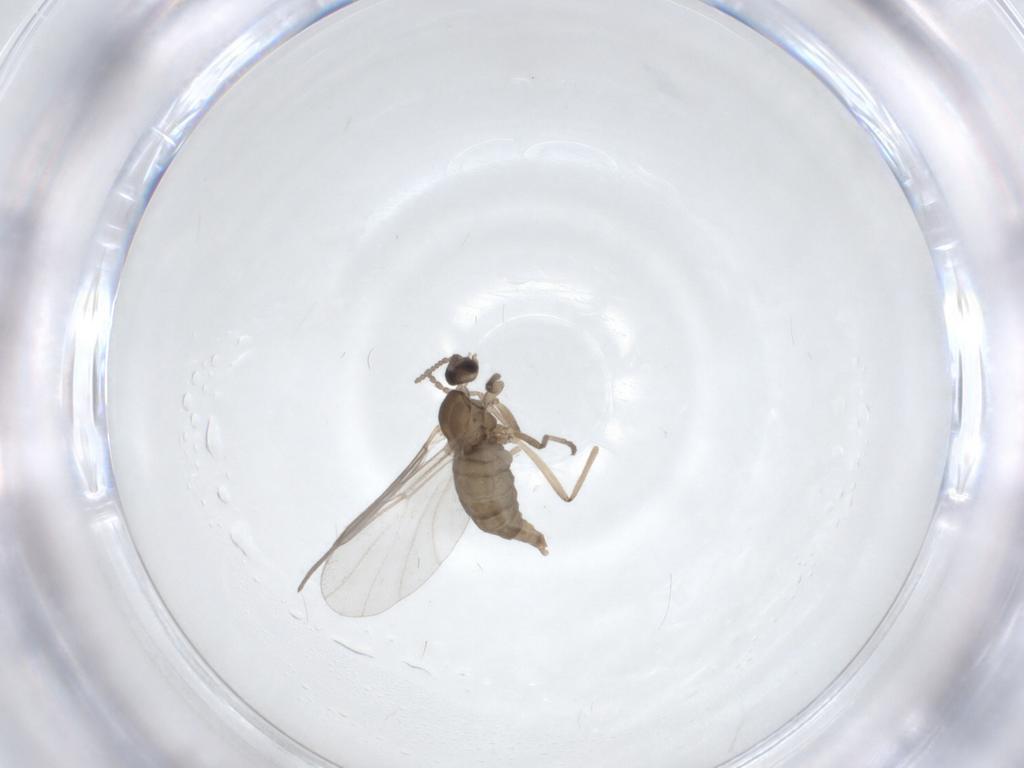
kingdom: Animalia
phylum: Arthropoda
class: Insecta
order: Diptera
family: Cecidomyiidae
